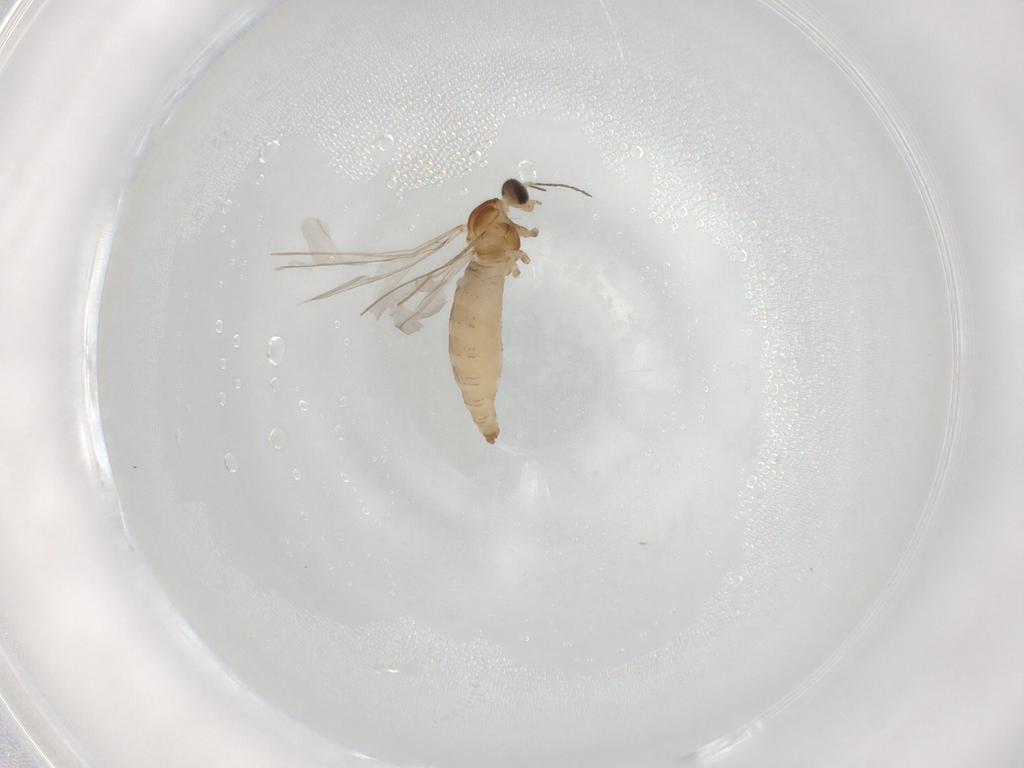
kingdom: Animalia
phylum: Arthropoda
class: Insecta
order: Diptera
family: Cecidomyiidae
